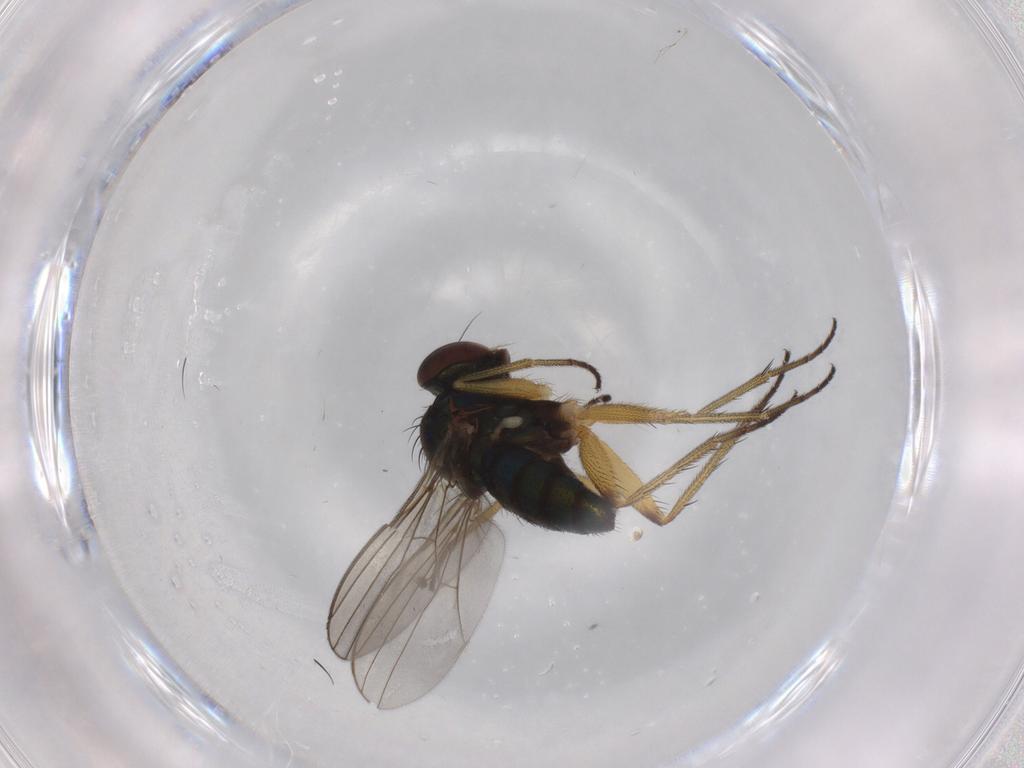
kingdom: Animalia
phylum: Arthropoda
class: Insecta
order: Diptera
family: Dolichopodidae
